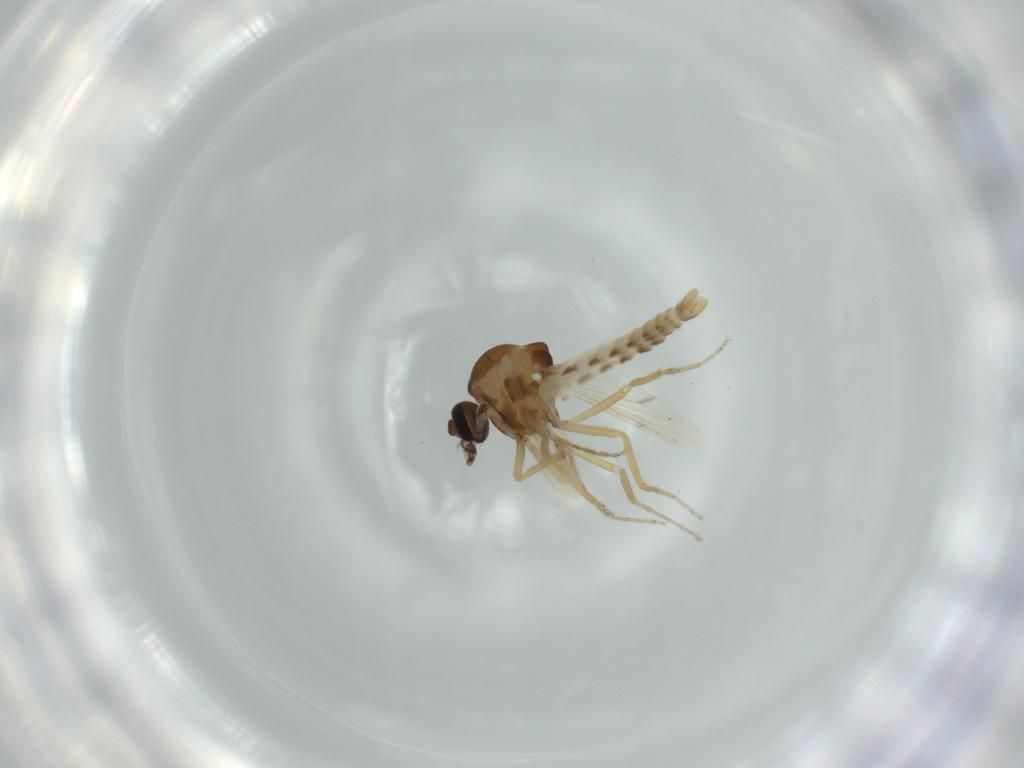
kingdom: Animalia
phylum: Arthropoda
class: Insecta
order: Diptera
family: Ceratopogonidae
